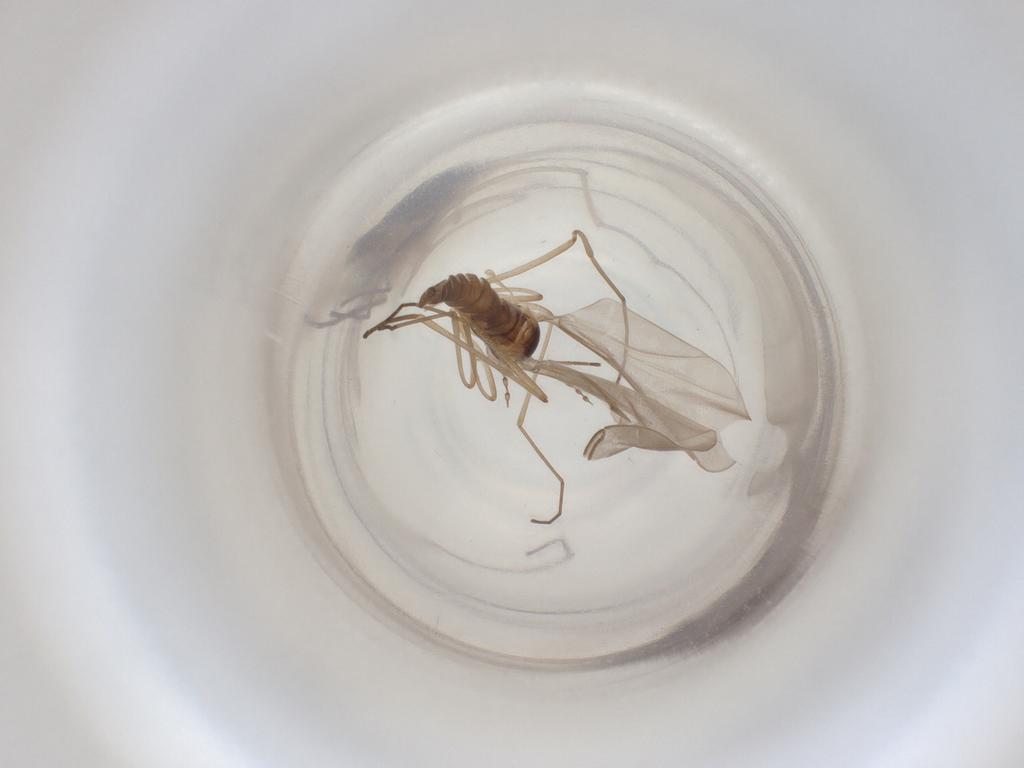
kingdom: Animalia
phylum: Arthropoda
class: Insecta
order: Diptera
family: Cecidomyiidae
